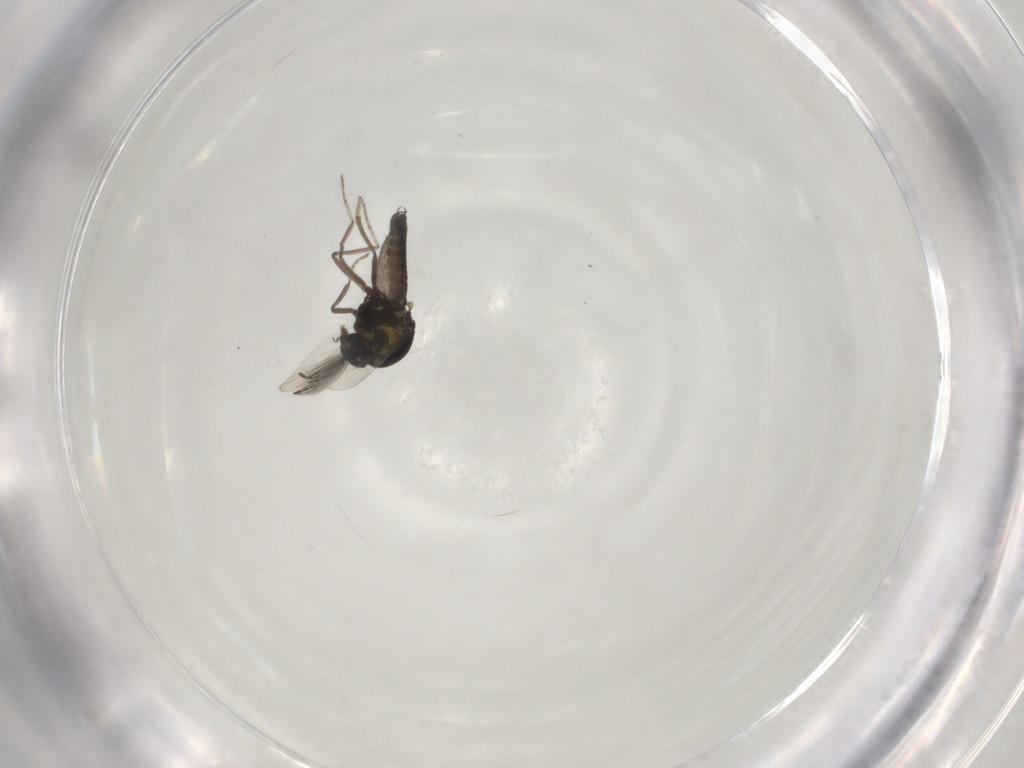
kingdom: Animalia
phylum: Arthropoda
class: Insecta
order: Diptera
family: Ceratopogonidae
